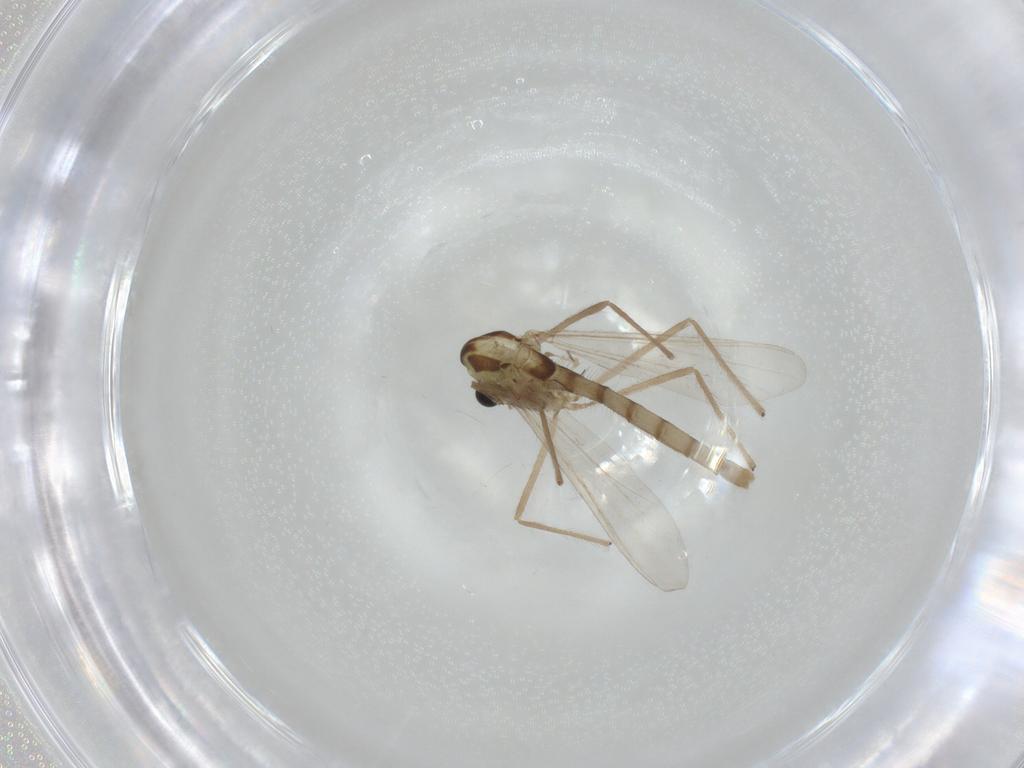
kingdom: Animalia
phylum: Arthropoda
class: Insecta
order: Diptera
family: Chironomidae
